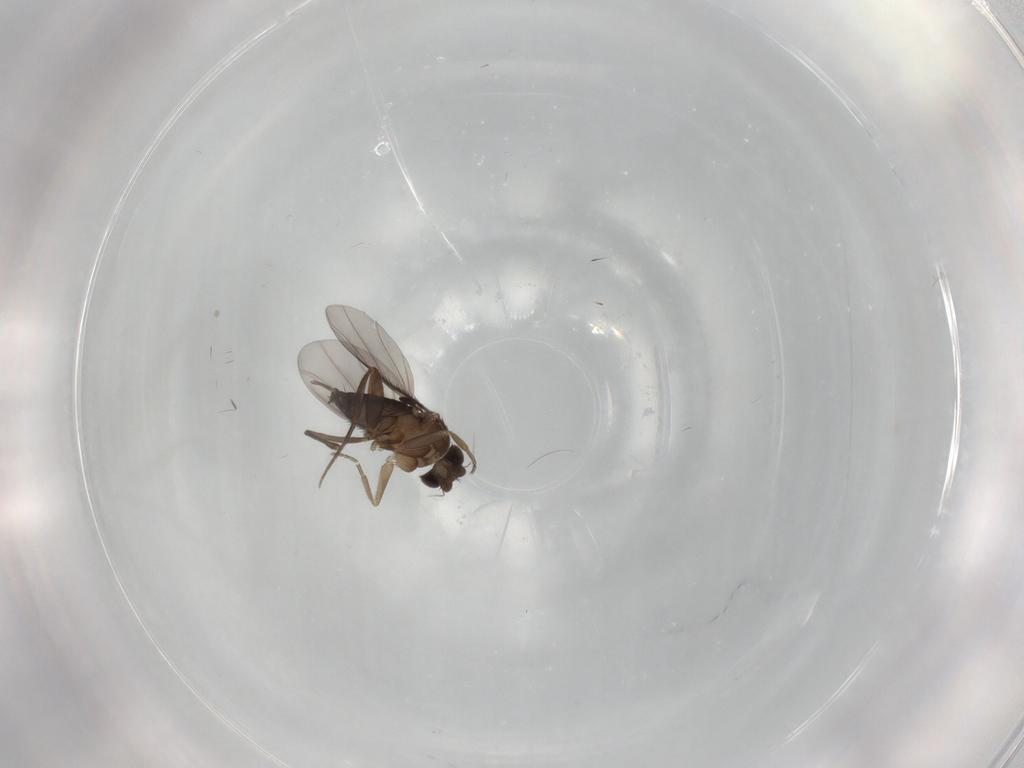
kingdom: Animalia
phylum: Arthropoda
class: Insecta
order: Diptera
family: Phoridae
